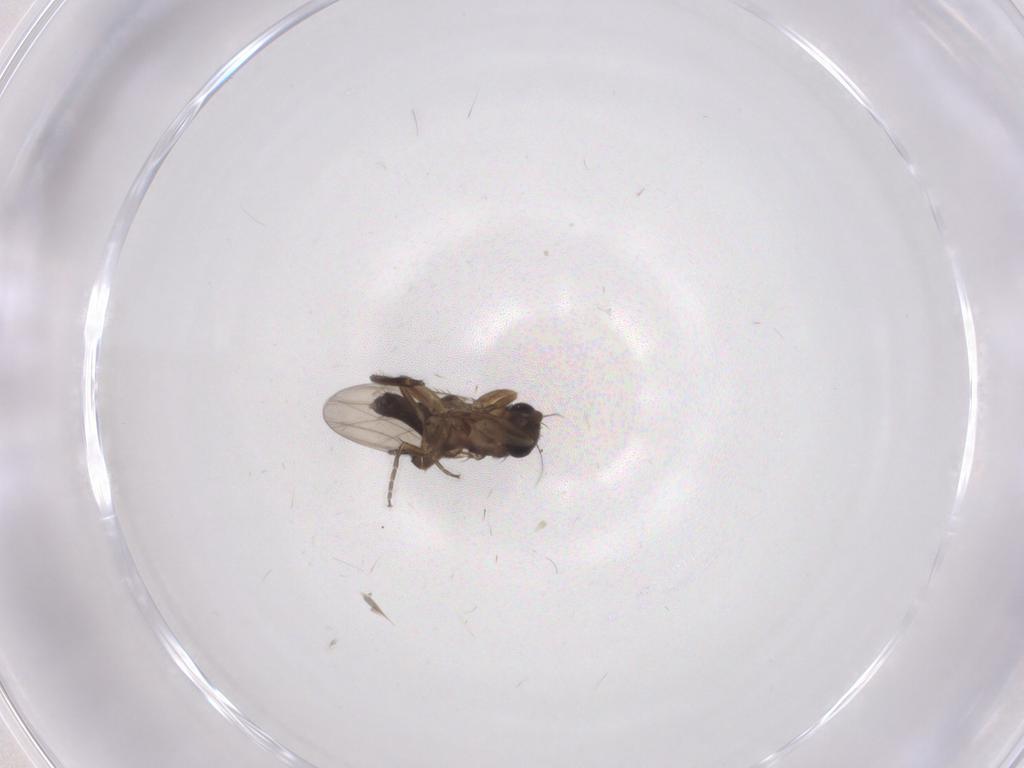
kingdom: Animalia
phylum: Arthropoda
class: Insecta
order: Diptera
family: Phoridae
